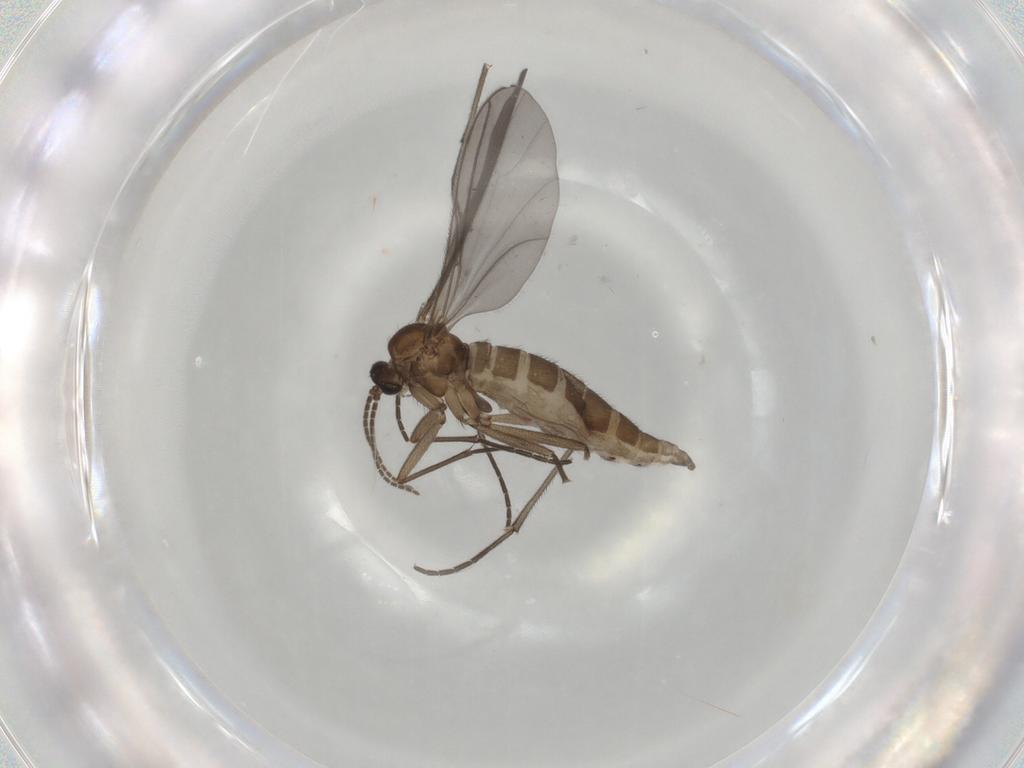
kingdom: Animalia
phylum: Arthropoda
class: Insecta
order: Diptera
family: Sciaridae
